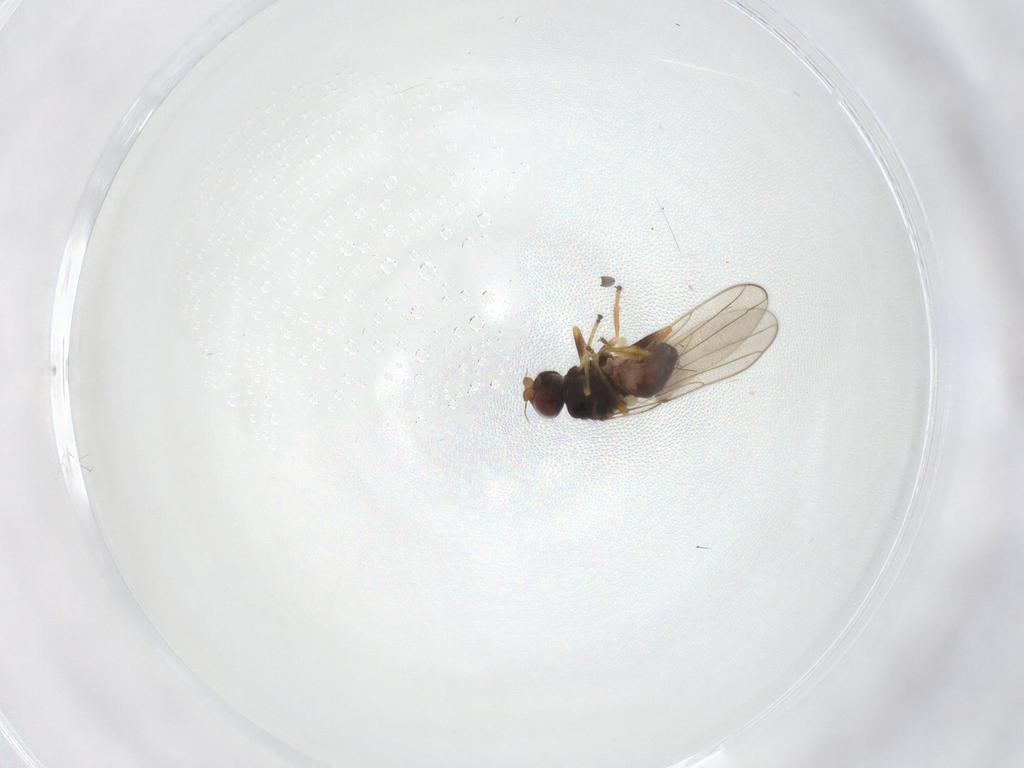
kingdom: Animalia
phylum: Arthropoda
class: Insecta
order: Diptera
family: Chloropidae
